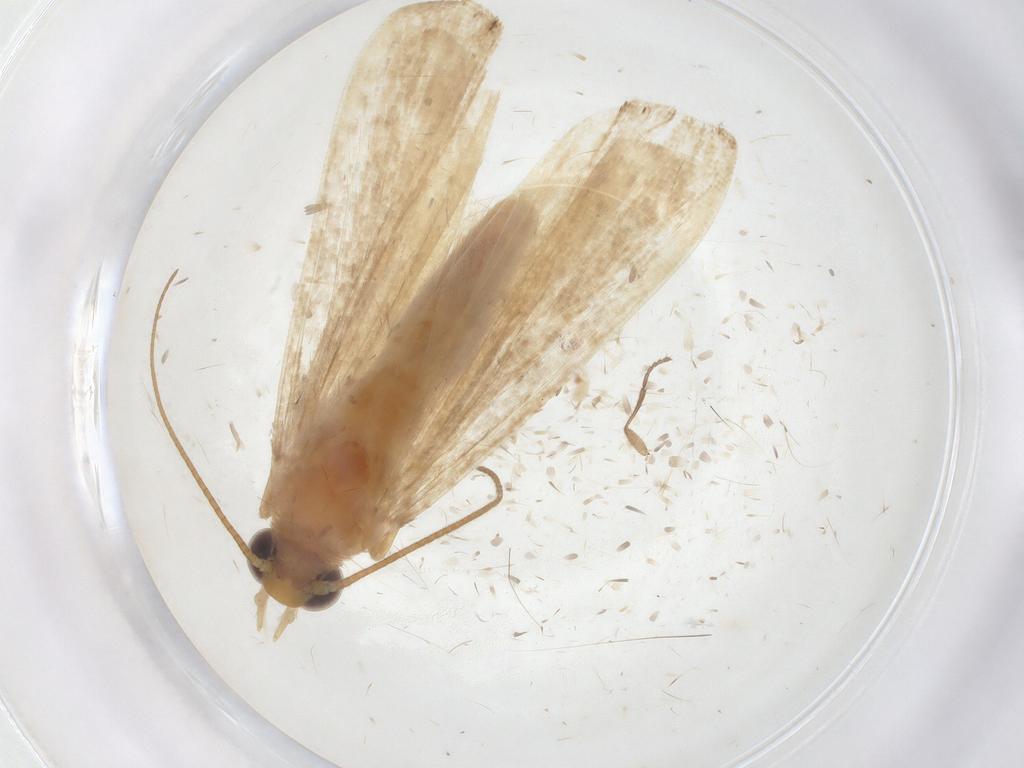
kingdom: Animalia
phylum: Arthropoda
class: Insecta
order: Lepidoptera
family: Pyralidae
